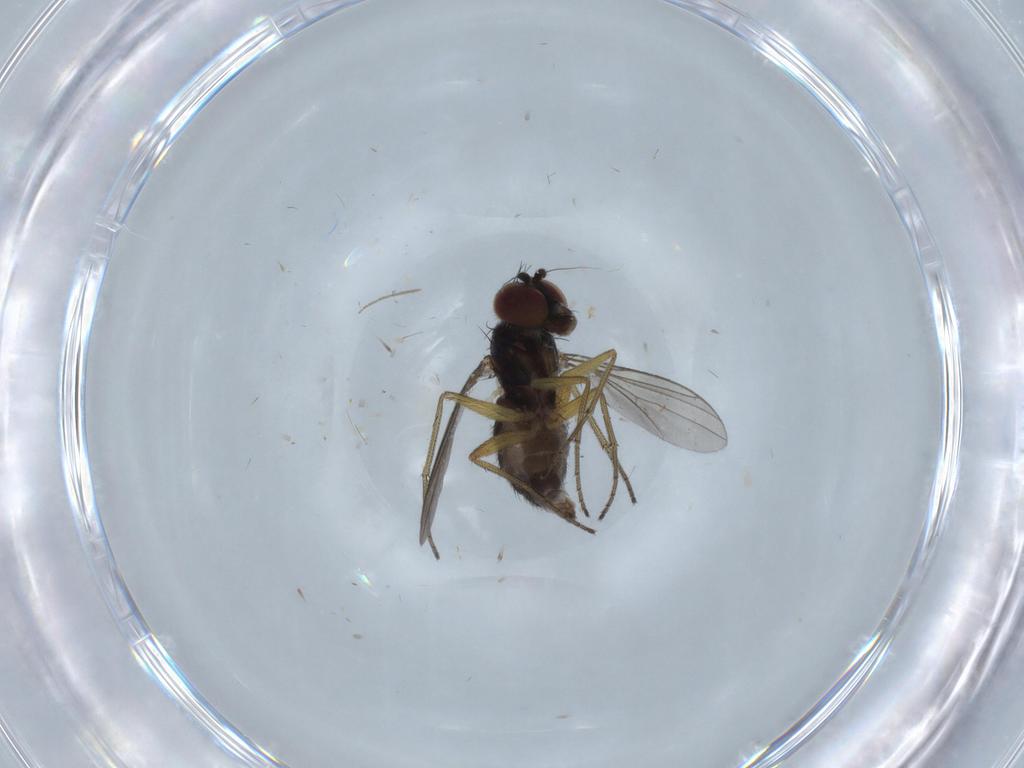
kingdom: Animalia
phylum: Arthropoda
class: Insecta
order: Diptera
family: Dolichopodidae
